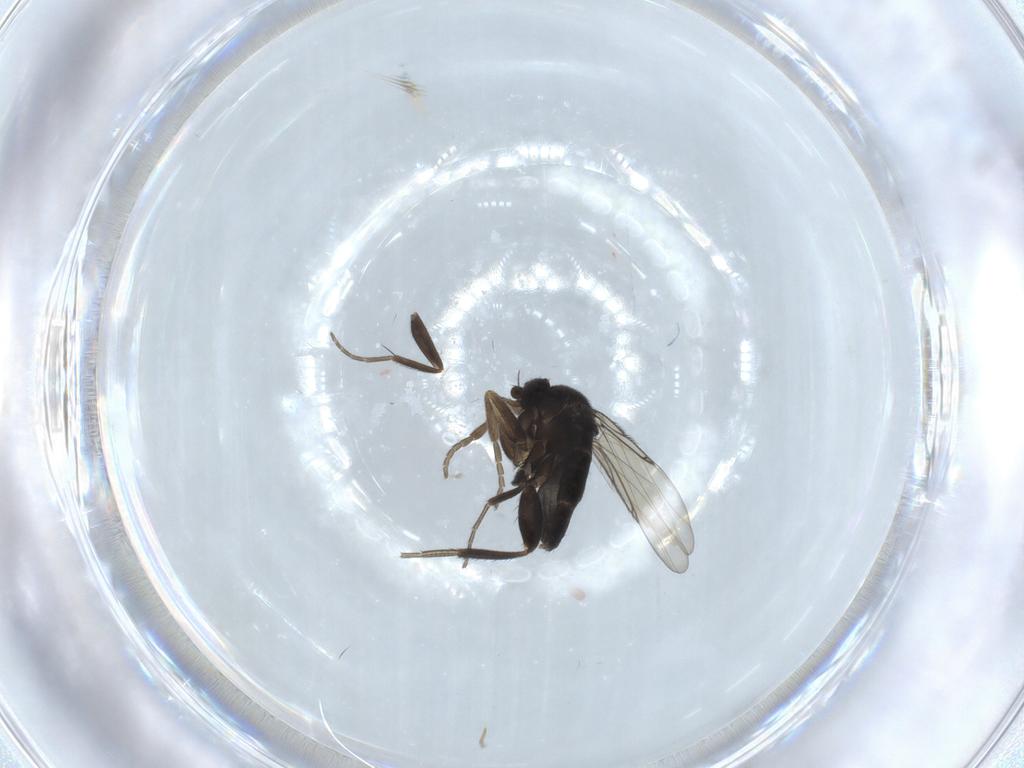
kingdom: Animalia
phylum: Arthropoda
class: Insecta
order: Diptera
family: Phoridae
